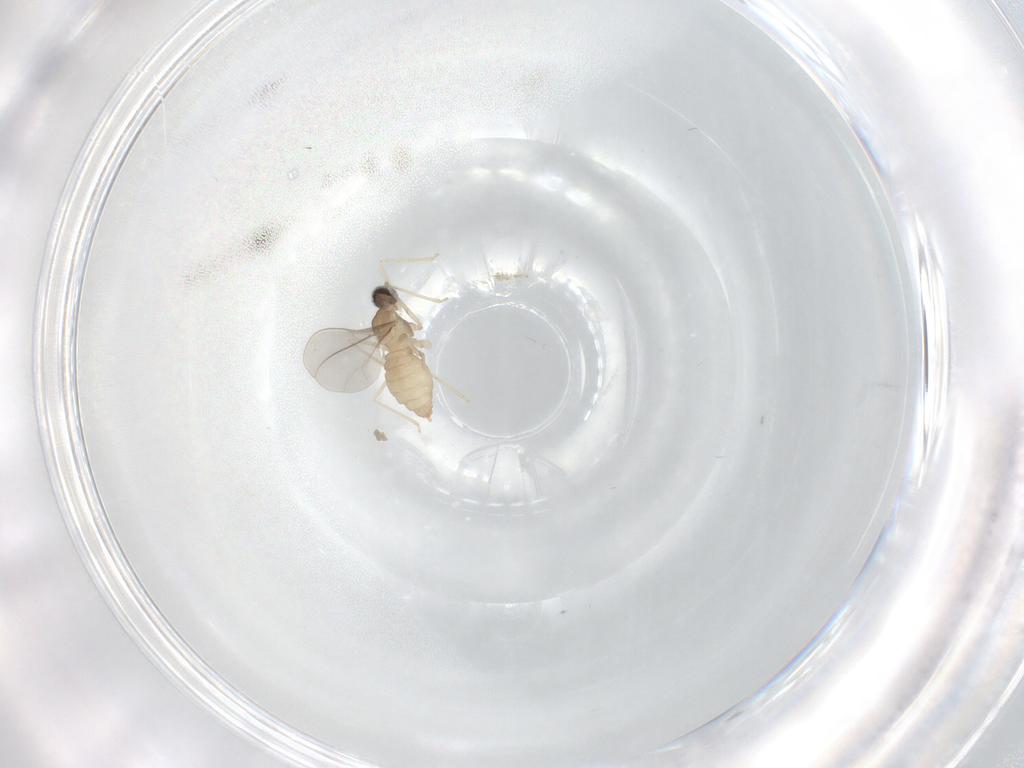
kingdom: Animalia
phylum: Arthropoda
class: Insecta
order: Diptera
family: Cecidomyiidae
